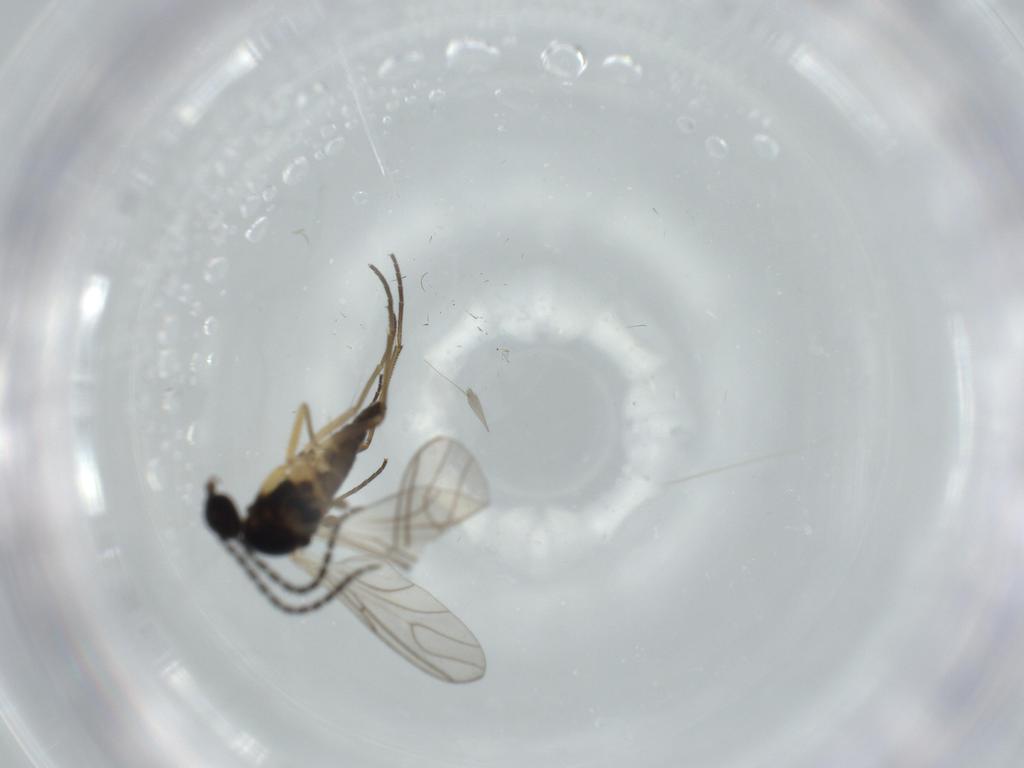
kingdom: Animalia
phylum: Arthropoda
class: Insecta
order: Diptera
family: Sciaridae
